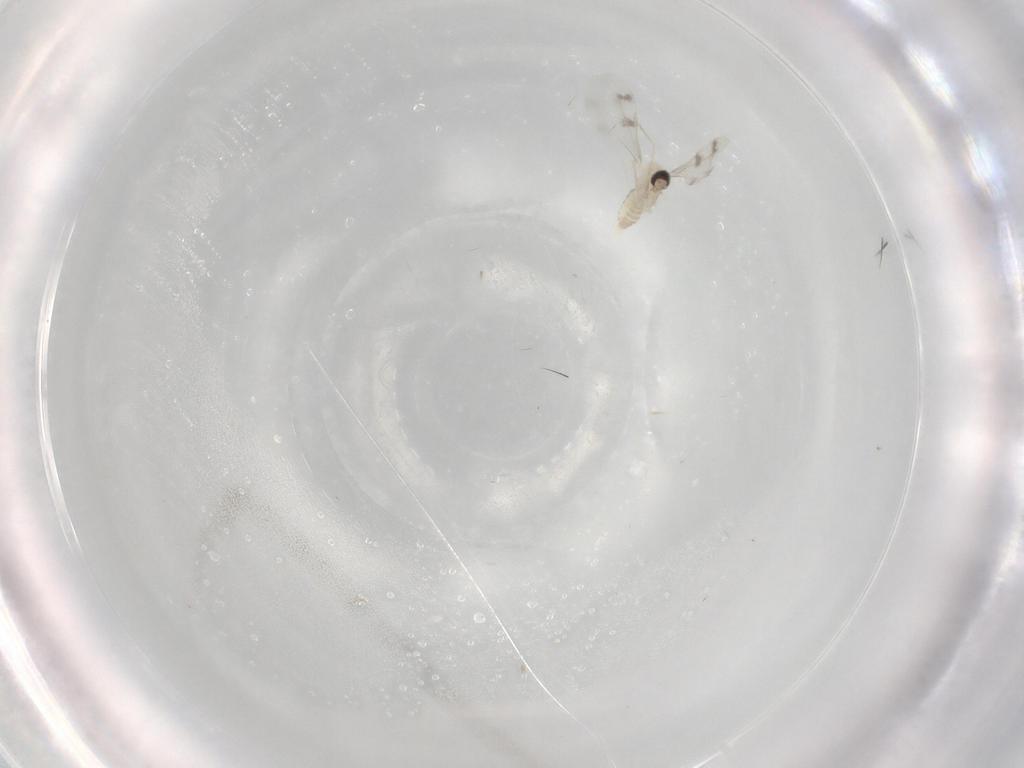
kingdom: Animalia
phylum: Arthropoda
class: Insecta
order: Diptera
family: Cecidomyiidae
